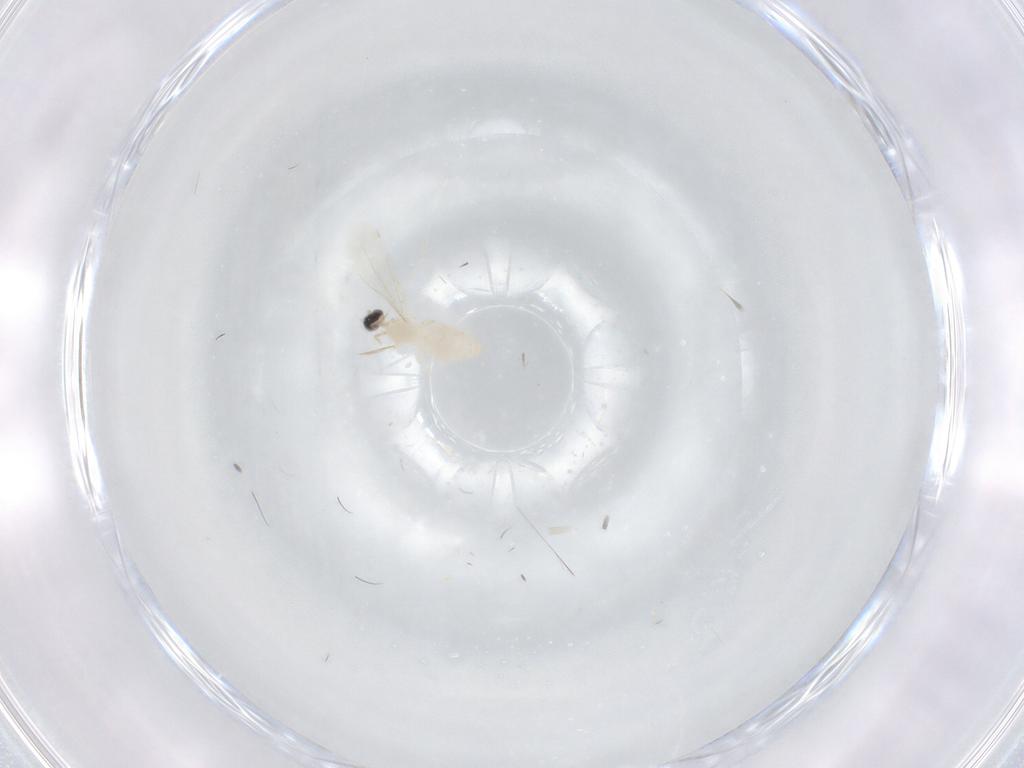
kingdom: Animalia
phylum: Arthropoda
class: Insecta
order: Diptera
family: Cecidomyiidae
